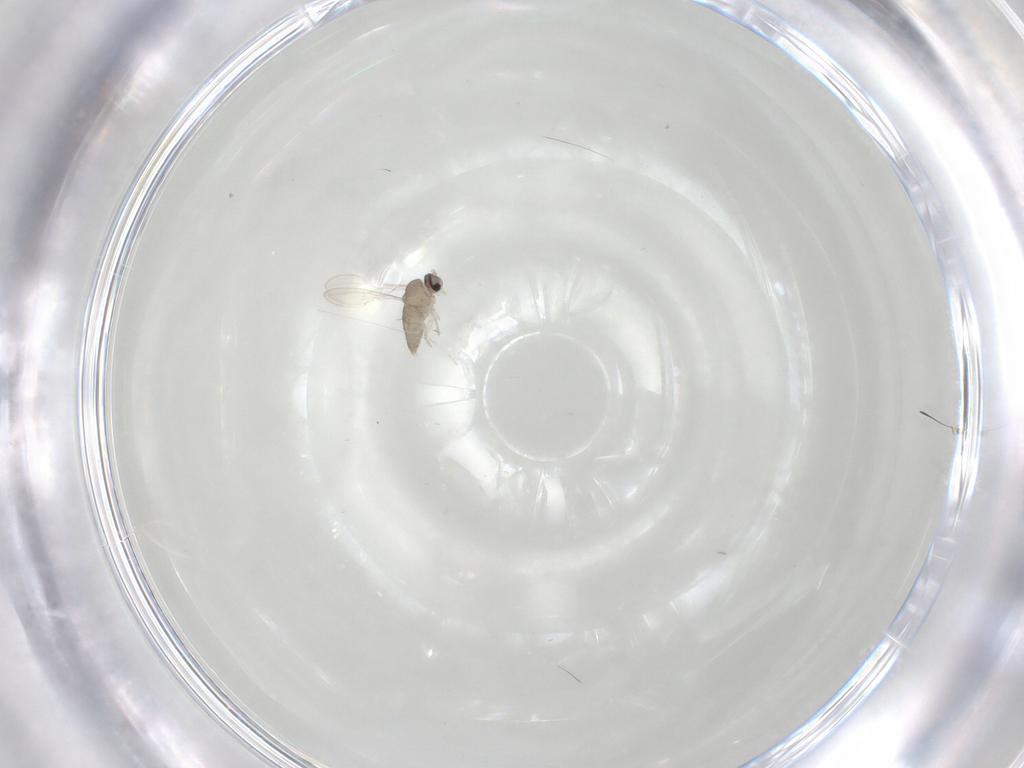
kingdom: Animalia
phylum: Arthropoda
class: Insecta
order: Diptera
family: Cecidomyiidae
